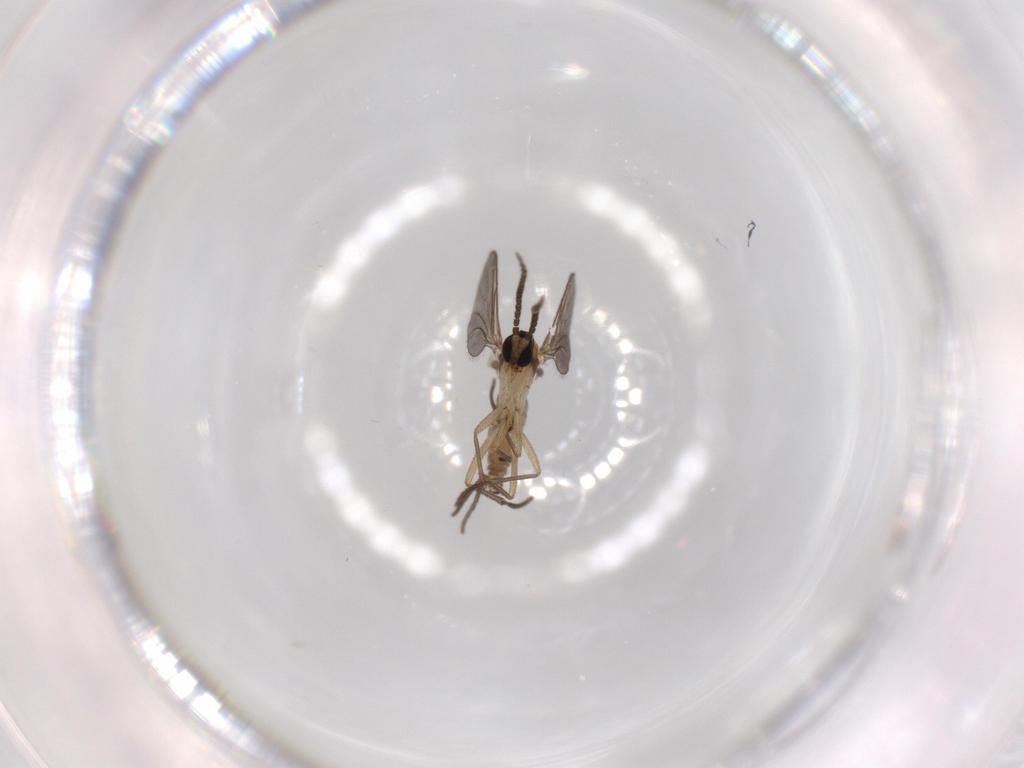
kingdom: Animalia
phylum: Arthropoda
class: Insecta
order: Diptera
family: Sciaridae
